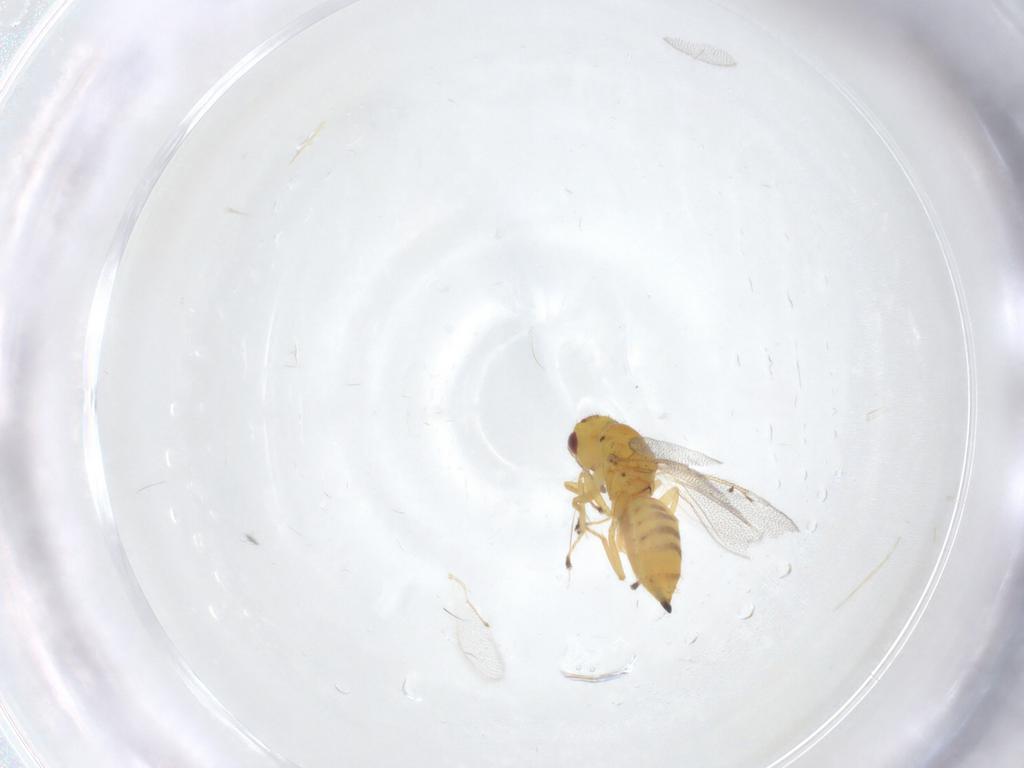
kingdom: Animalia
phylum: Arthropoda
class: Insecta
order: Hymenoptera
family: Eulophidae
